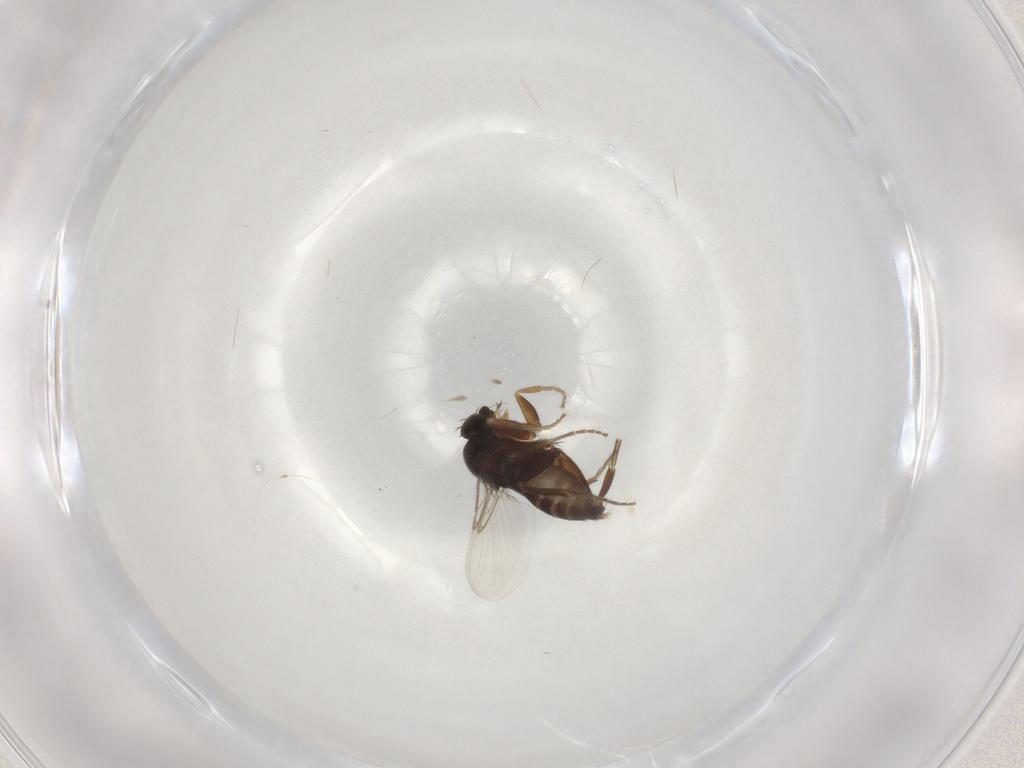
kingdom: Animalia
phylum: Arthropoda
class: Insecta
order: Diptera
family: Phoridae
